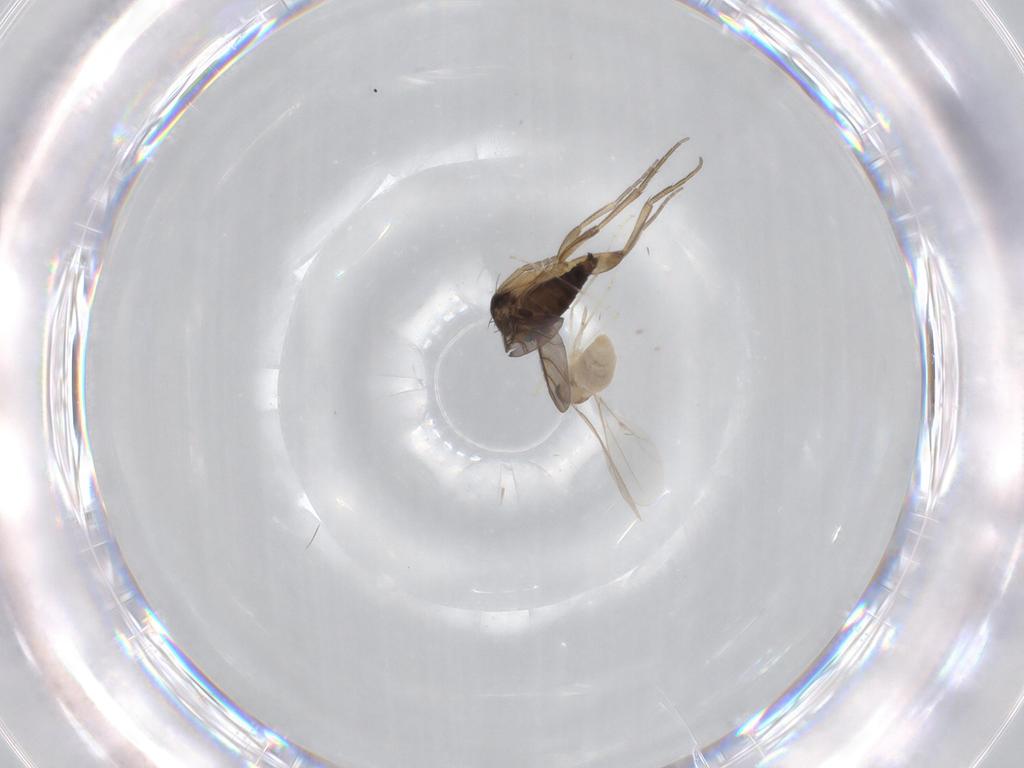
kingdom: Animalia
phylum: Arthropoda
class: Insecta
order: Diptera
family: Cecidomyiidae
